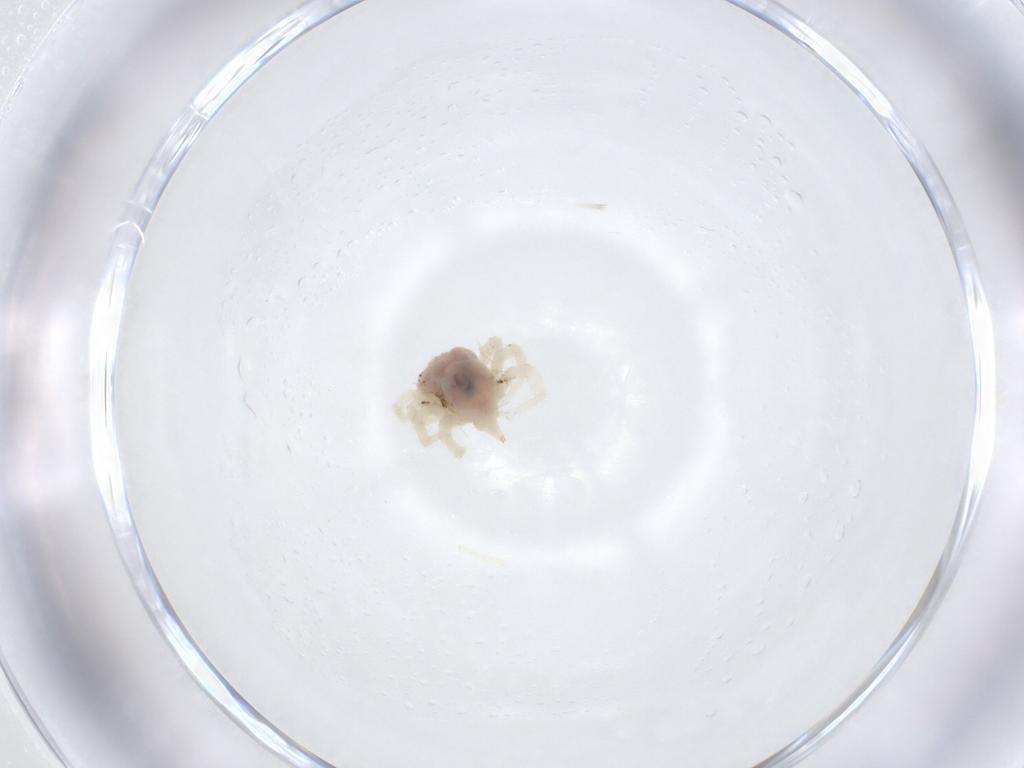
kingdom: Animalia
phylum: Arthropoda
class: Arachnida
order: Trombidiformes
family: Anystidae
